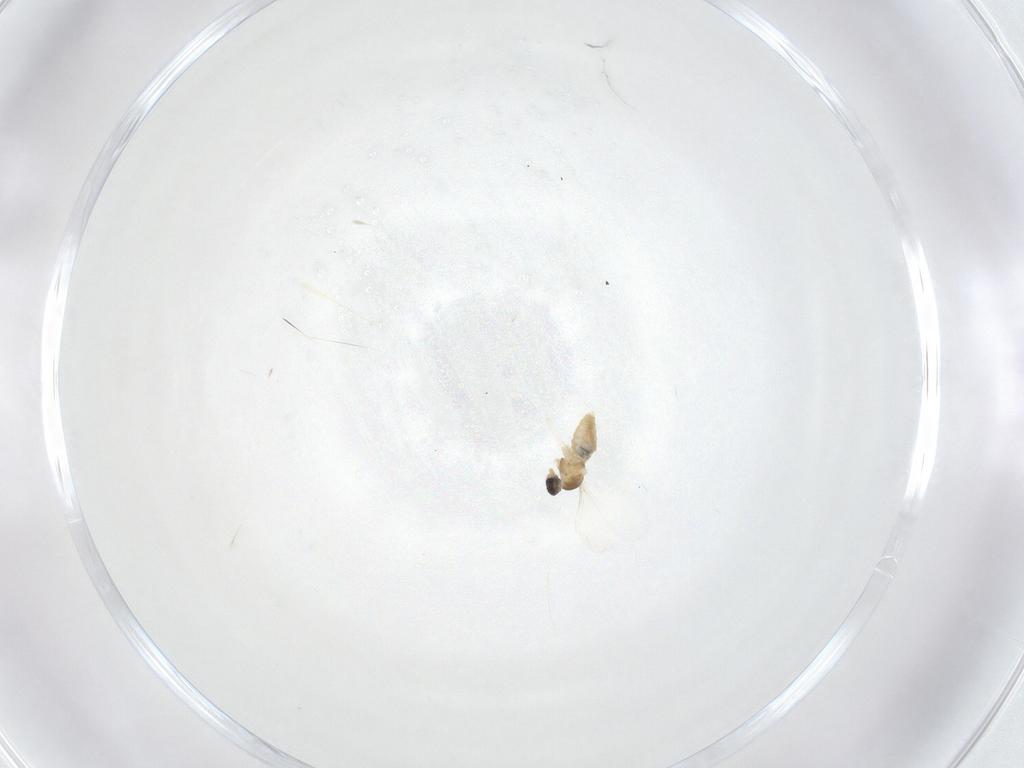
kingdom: Animalia
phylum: Arthropoda
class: Insecta
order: Diptera
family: Cecidomyiidae
